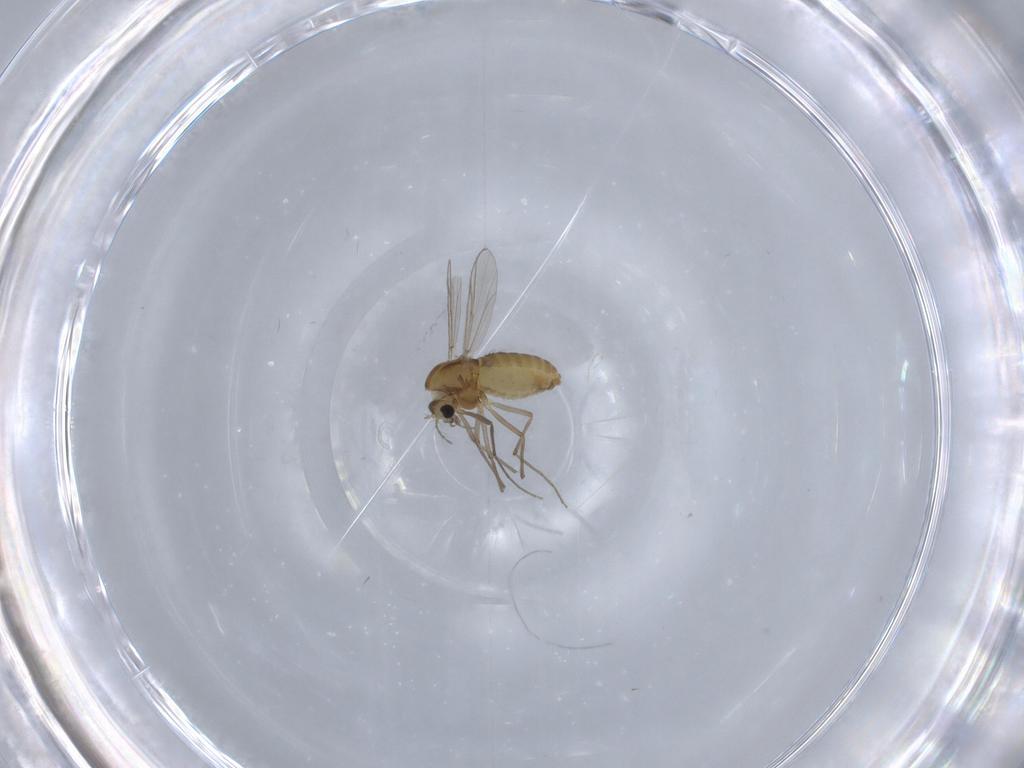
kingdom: Animalia
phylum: Arthropoda
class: Insecta
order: Diptera
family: Chironomidae
